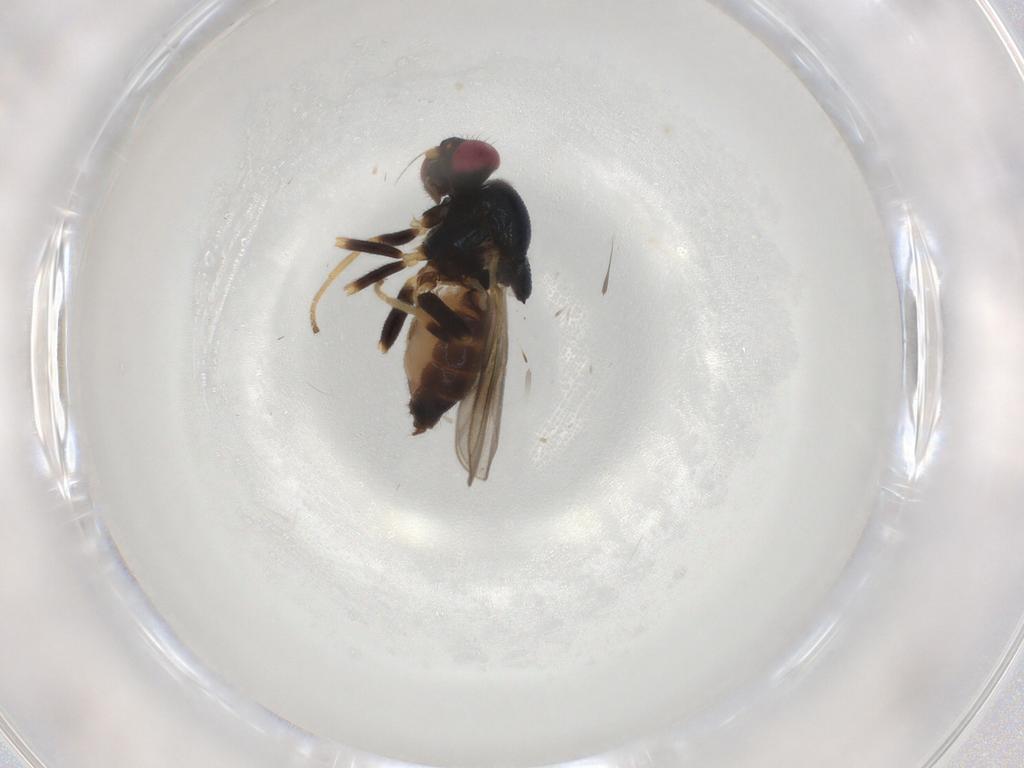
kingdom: Animalia
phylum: Arthropoda
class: Insecta
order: Diptera
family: Chloropidae
